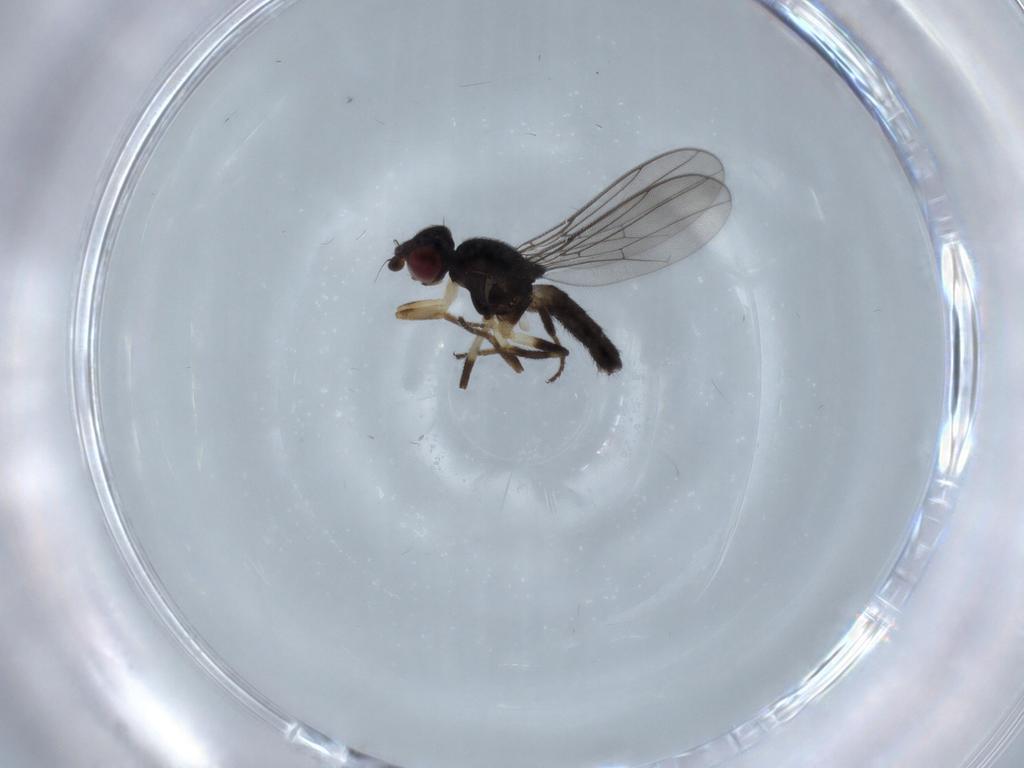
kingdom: Animalia
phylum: Arthropoda
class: Insecta
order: Diptera
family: Chloropidae
